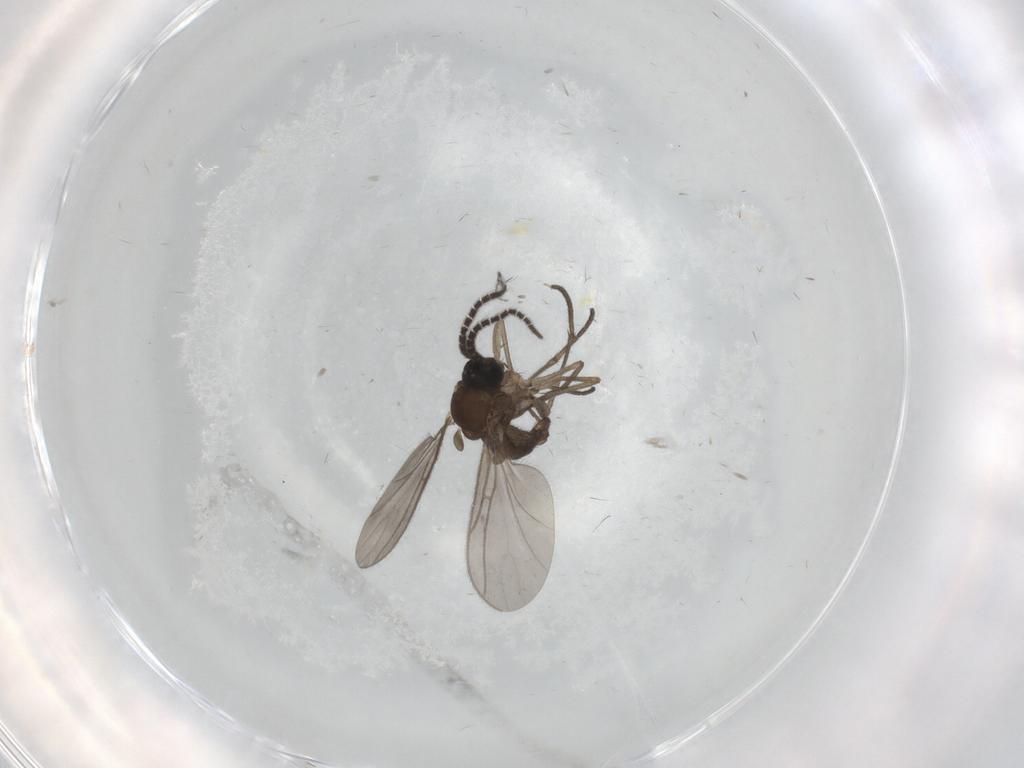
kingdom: Animalia
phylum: Arthropoda
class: Insecta
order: Diptera
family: Sciaridae
